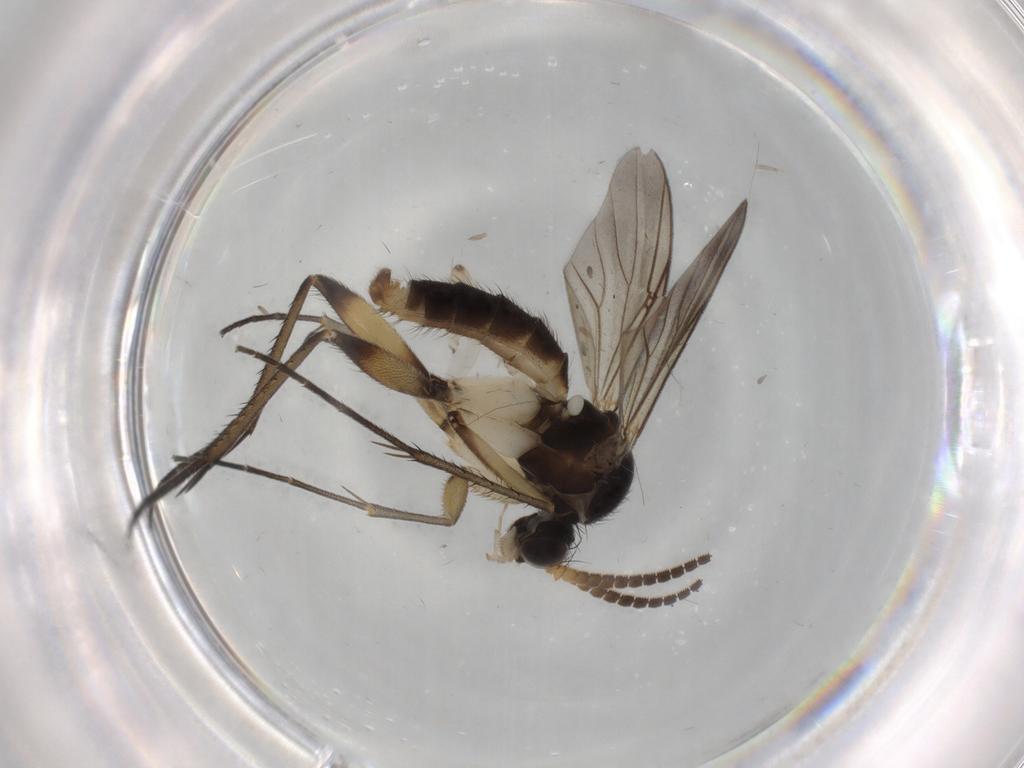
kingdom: Animalia
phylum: Arthropoda
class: Insecta
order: Diptera
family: Psychodidae
